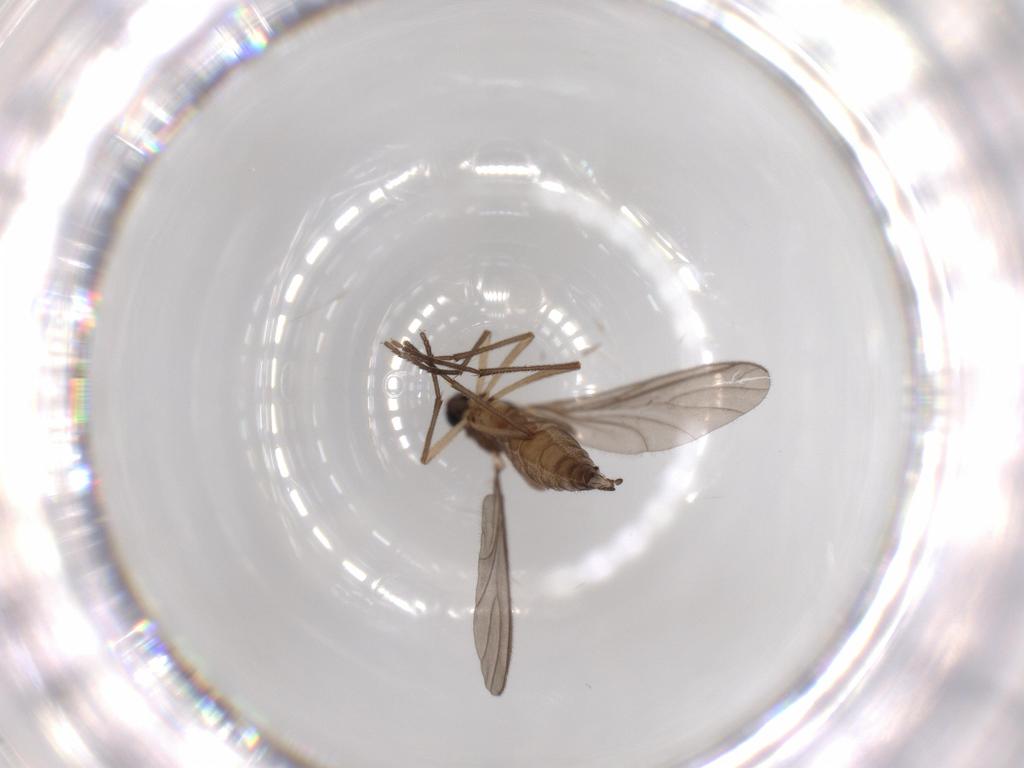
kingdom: Animalia
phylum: Arthropoda
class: Insecta
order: Diptera
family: Sciaridae
